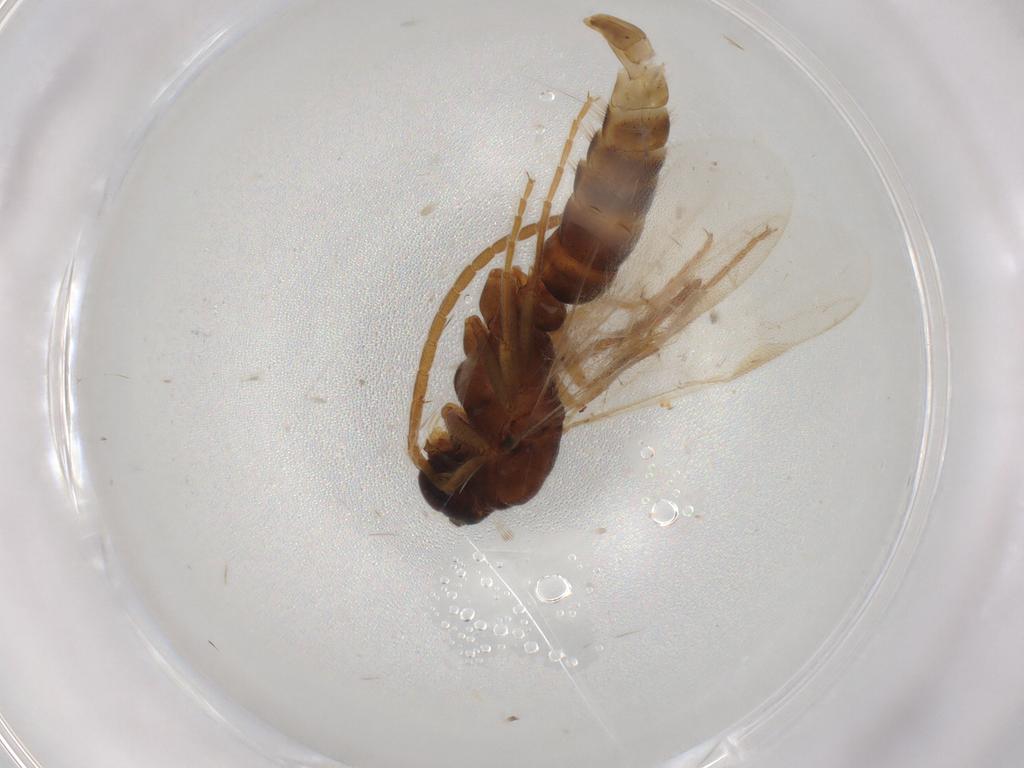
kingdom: Animalia
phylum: Arthropoda
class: Insecta
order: Hymenoptera
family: Formicidae
